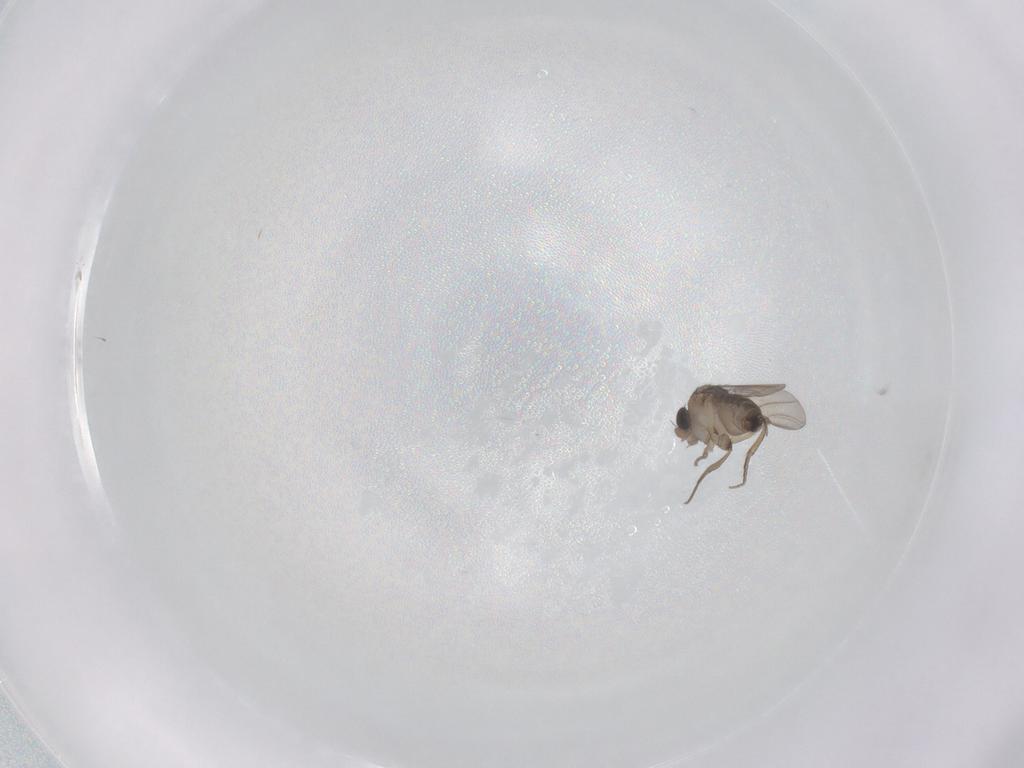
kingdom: Animalia
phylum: Arthropoda
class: Insecta
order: Diptera
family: Phoridae
